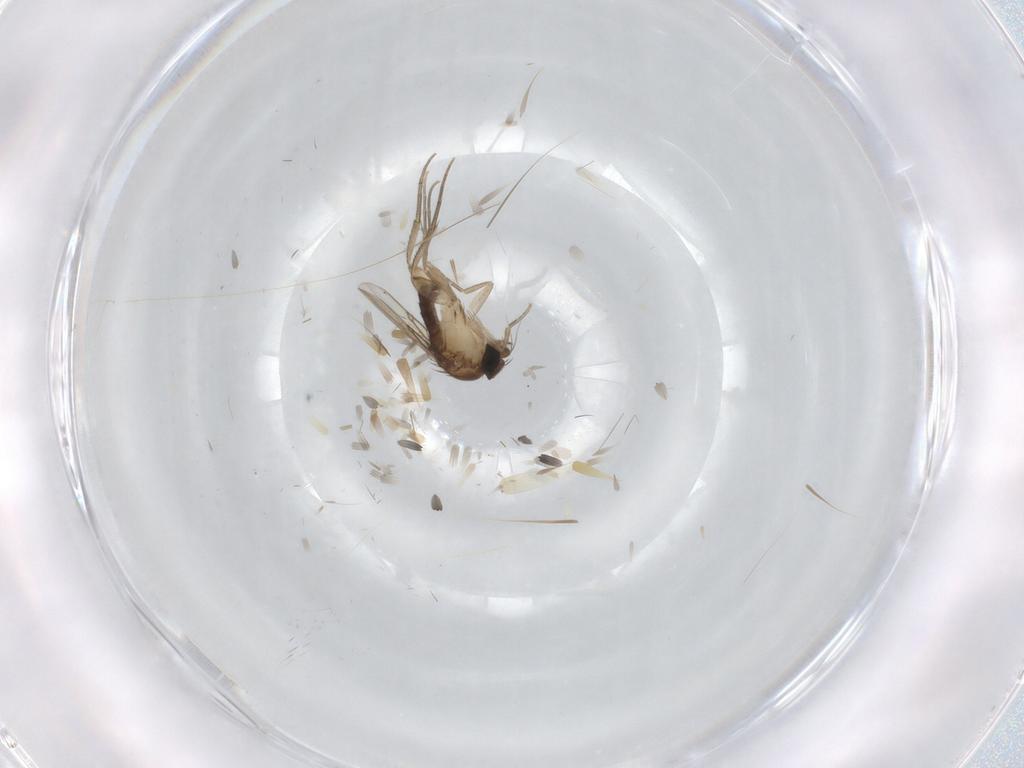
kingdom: Animalia
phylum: Arthropoda
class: Insecta
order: Diptera
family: Phoridae
